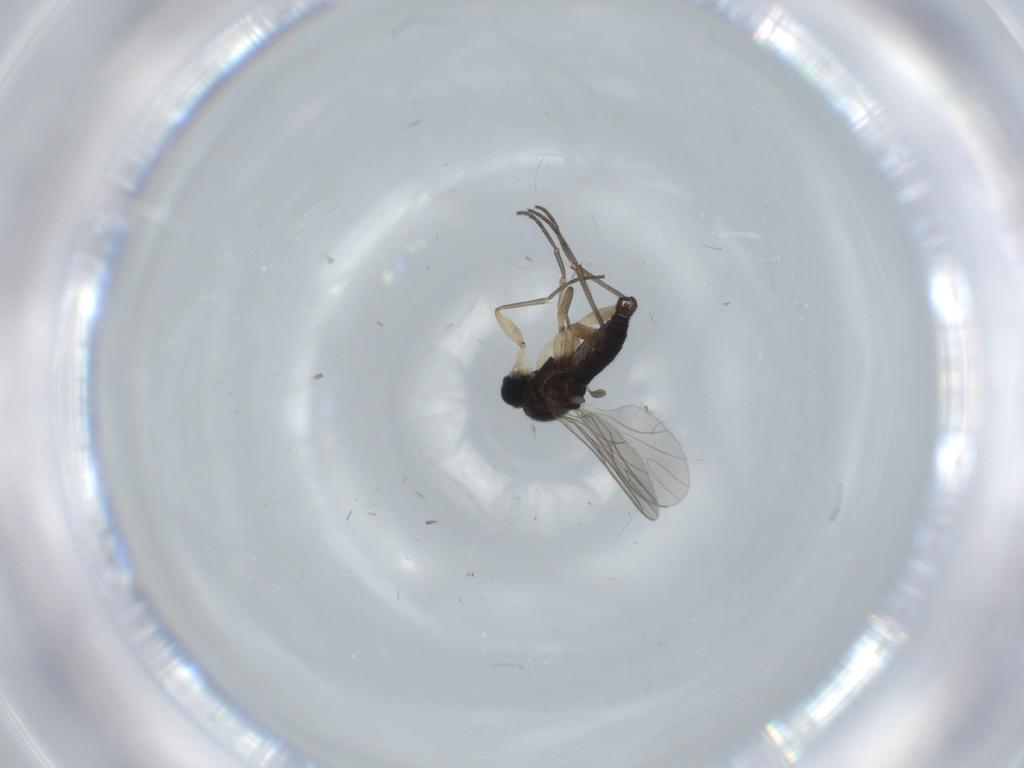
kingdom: Animalia
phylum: Arthropoda
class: Insecta
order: Diptera
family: Sciaridae
